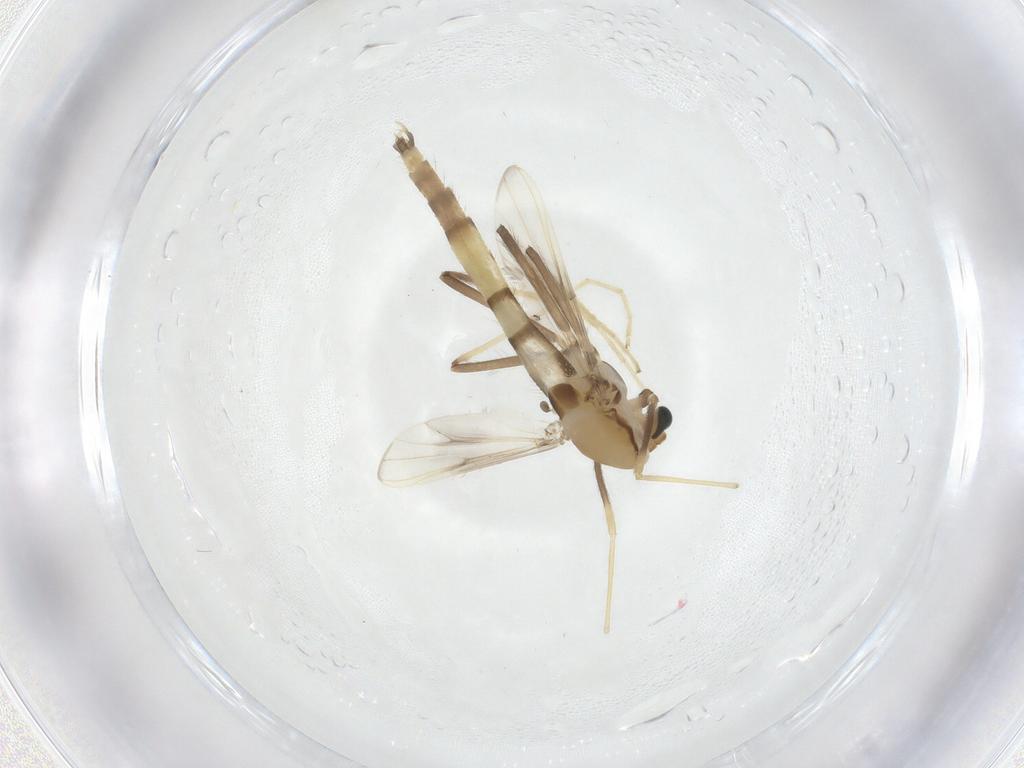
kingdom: Animalia
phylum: Arthropoda
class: Insecta
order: Diptera
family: Chironomidae
